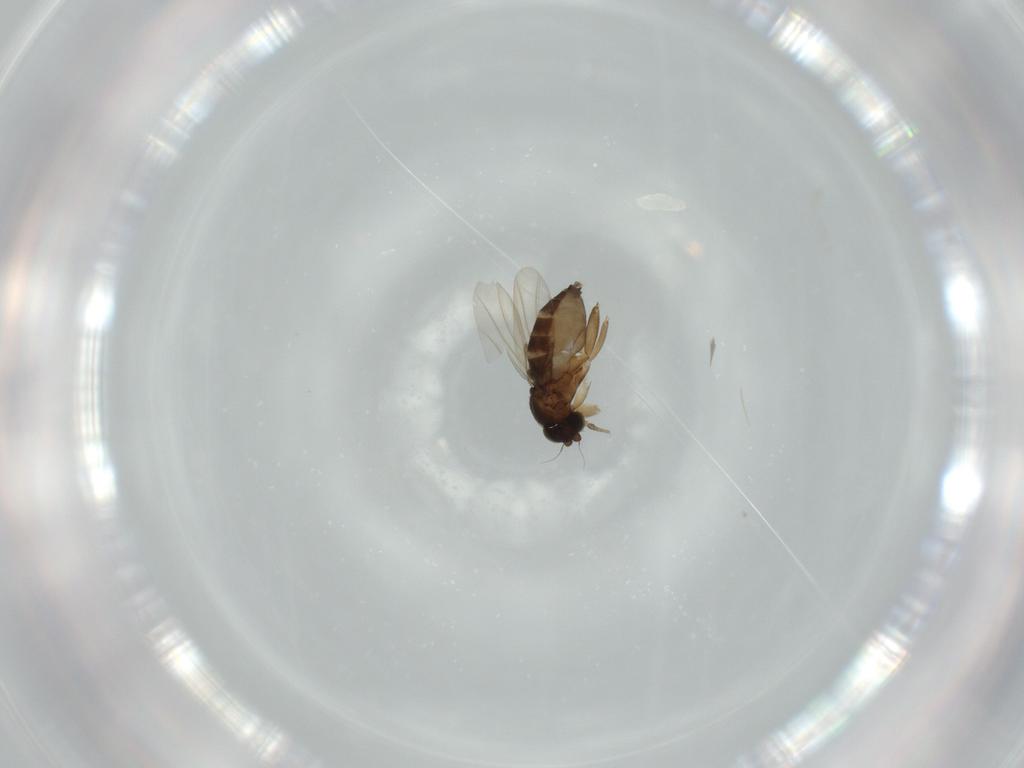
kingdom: Animalia
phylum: Arthropoda
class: Insecta
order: Diptera
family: Phoridae
